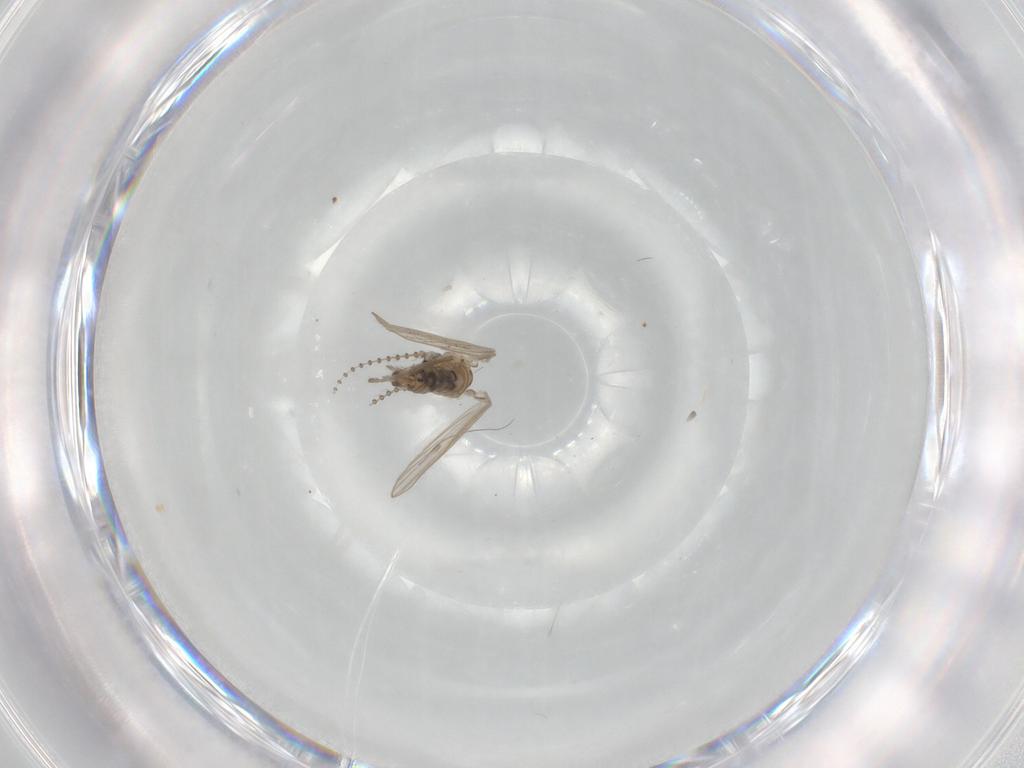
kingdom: Animalia
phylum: Arthropoda
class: Insecta
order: Diptera
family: Psychodidae
